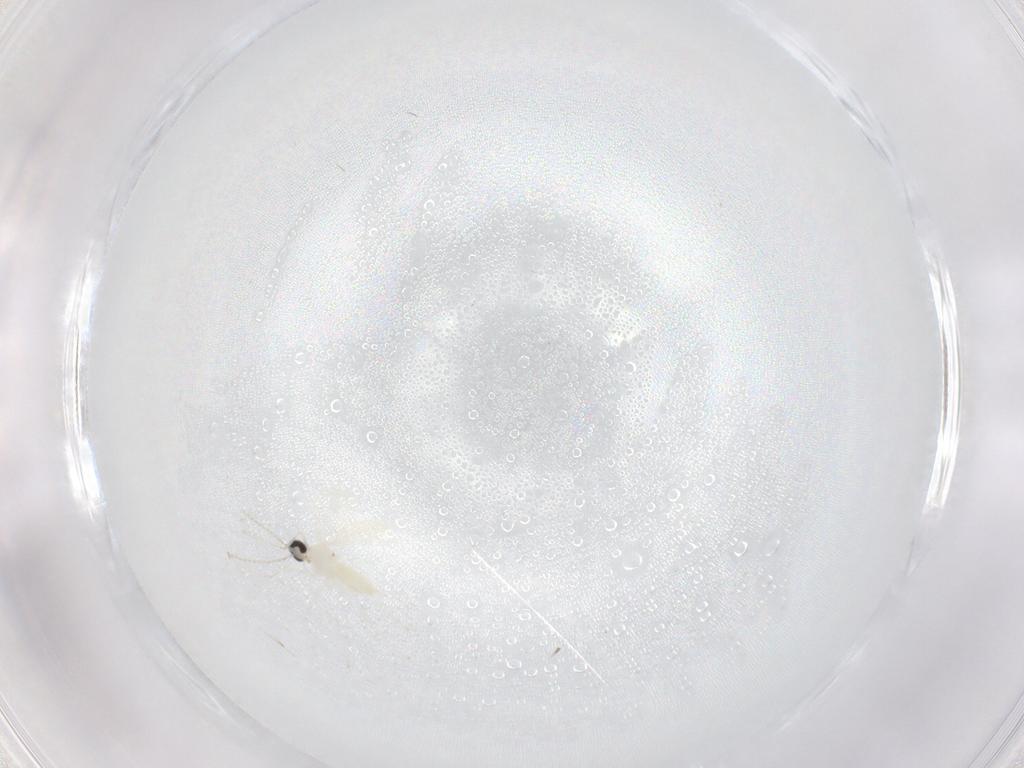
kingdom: Animalia
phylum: Arthropoda
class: Insecta
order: Diptera
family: Cecidomyiidae
